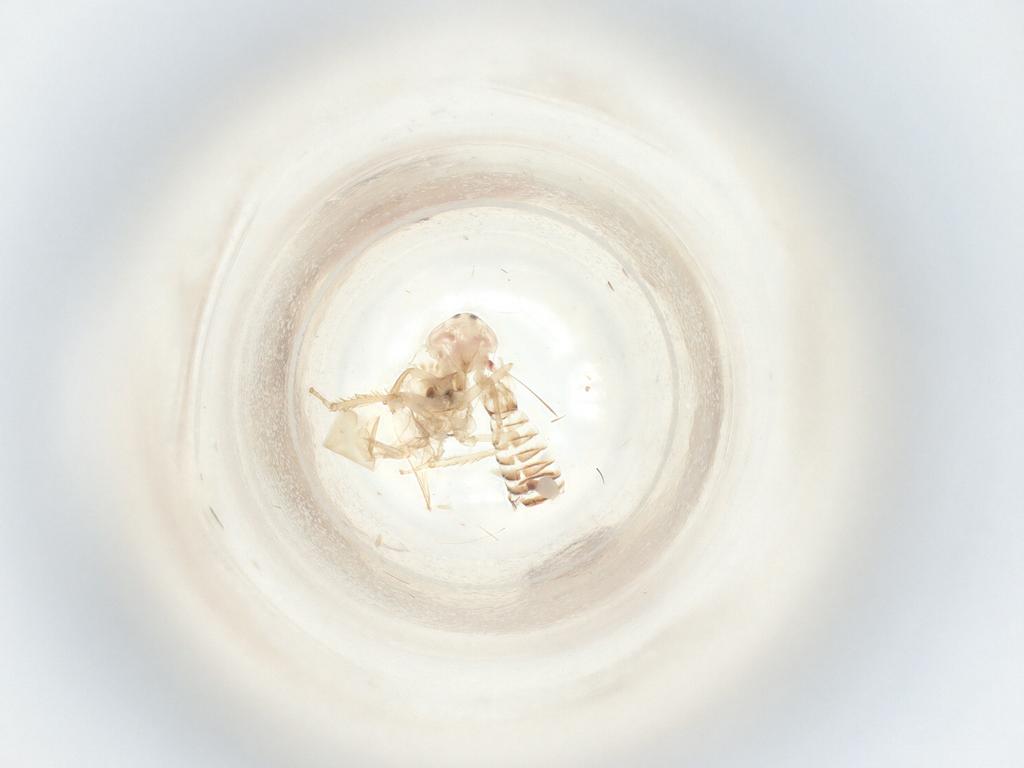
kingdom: Animalia
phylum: Arthropoda
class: Insecta
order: Hemiptera
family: Cicadellidae
